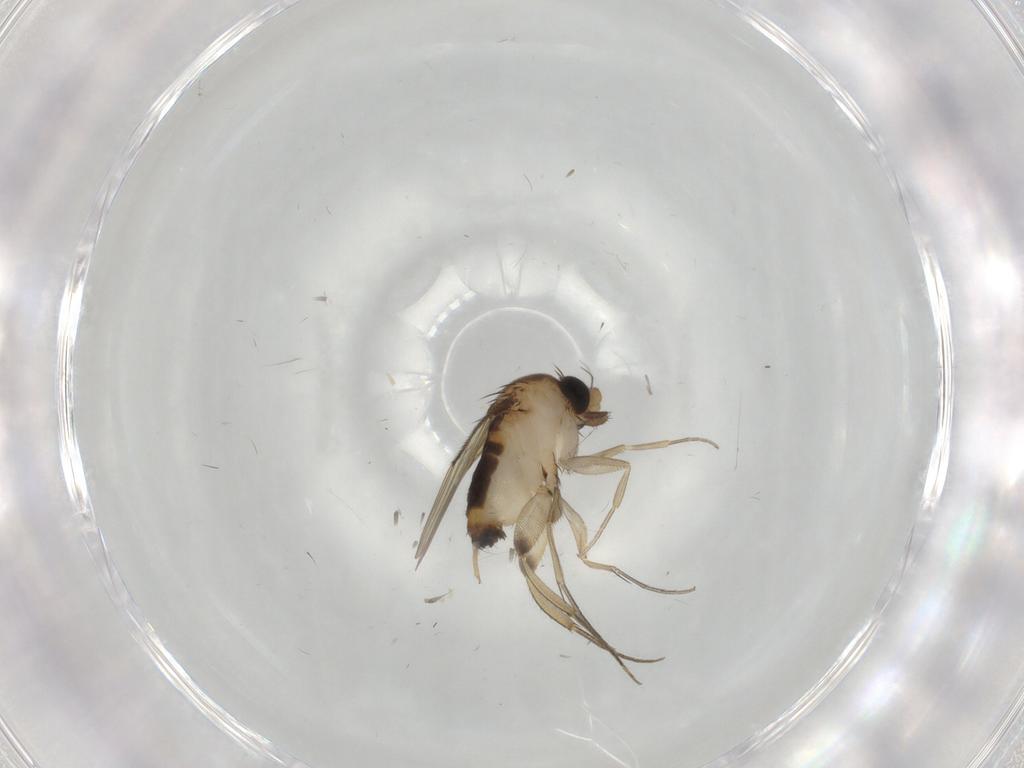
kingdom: Animalia
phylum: Arthropoda
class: Insecta
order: Diptera
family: Phoridae
